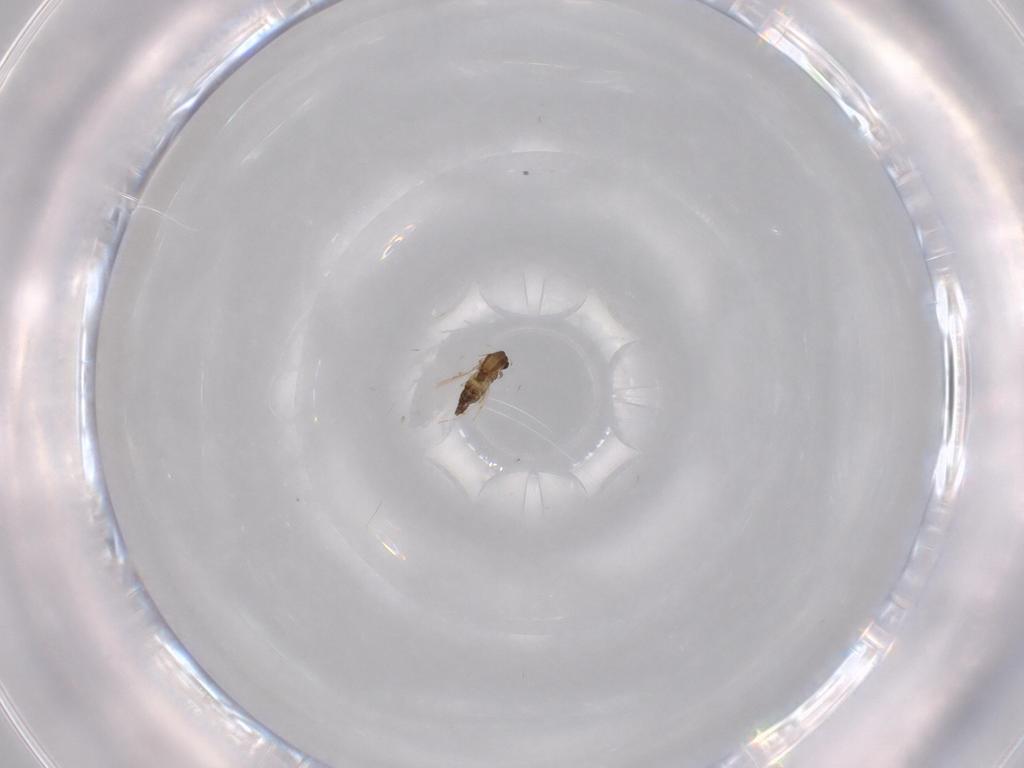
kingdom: Animalia
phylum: Arthropoda
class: Insecta
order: Diptera
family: Chironomidae
